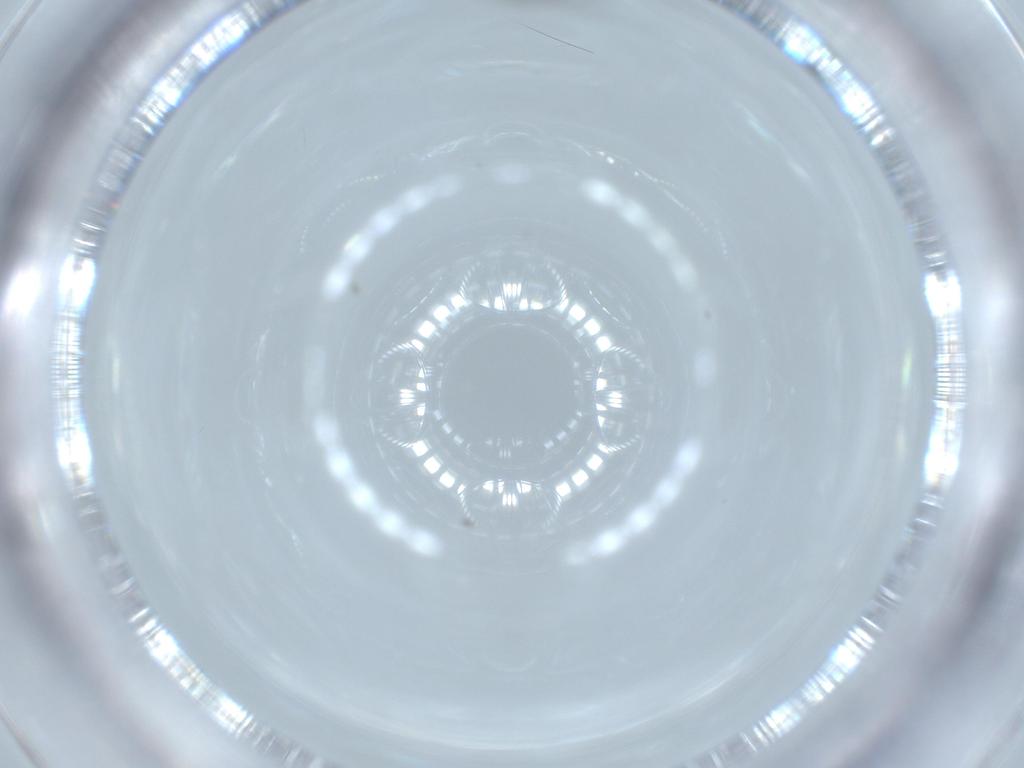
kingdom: Animalia
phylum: Arthropoda
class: Insecta
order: Diptera
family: Phoridae
